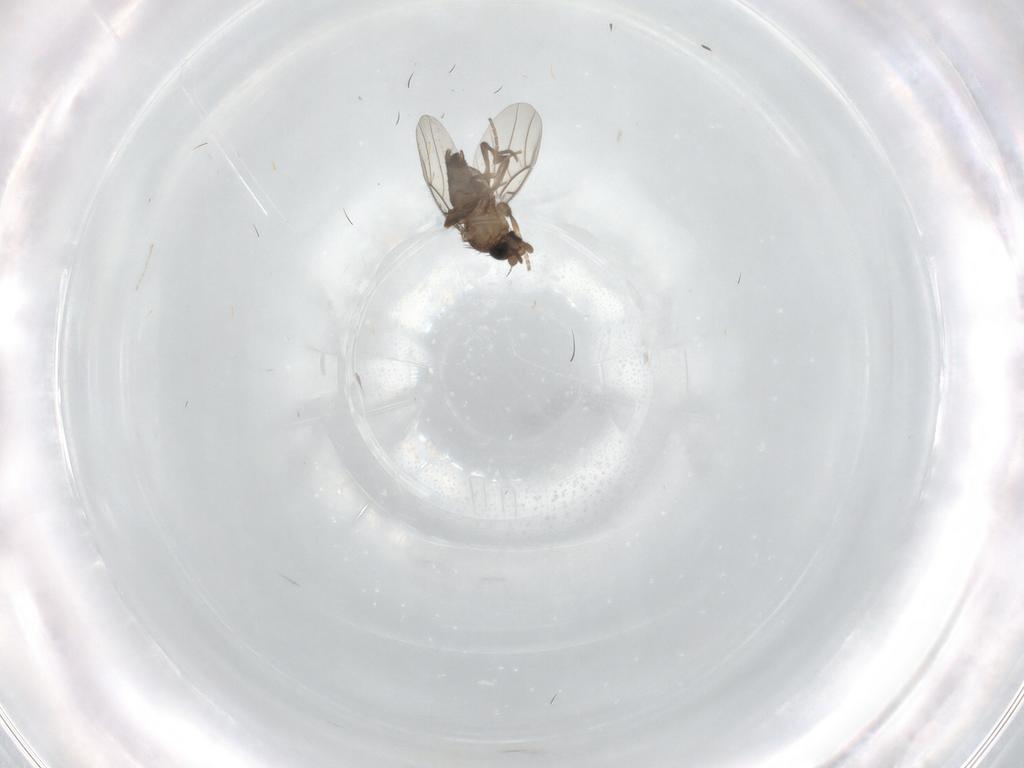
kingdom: Animalia
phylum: Arthropoda
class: Insecta
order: Diptera
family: Phoridae
